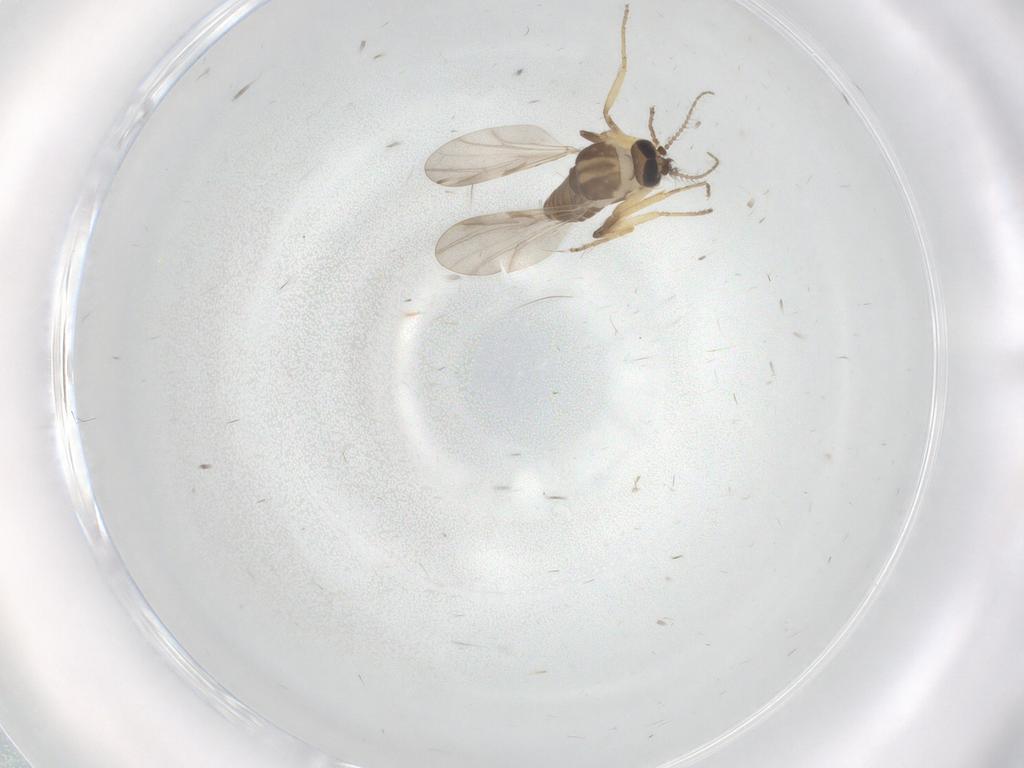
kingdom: Animalia
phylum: Arthropoda
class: Insecta
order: Diptera
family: Cecidomyiidae
